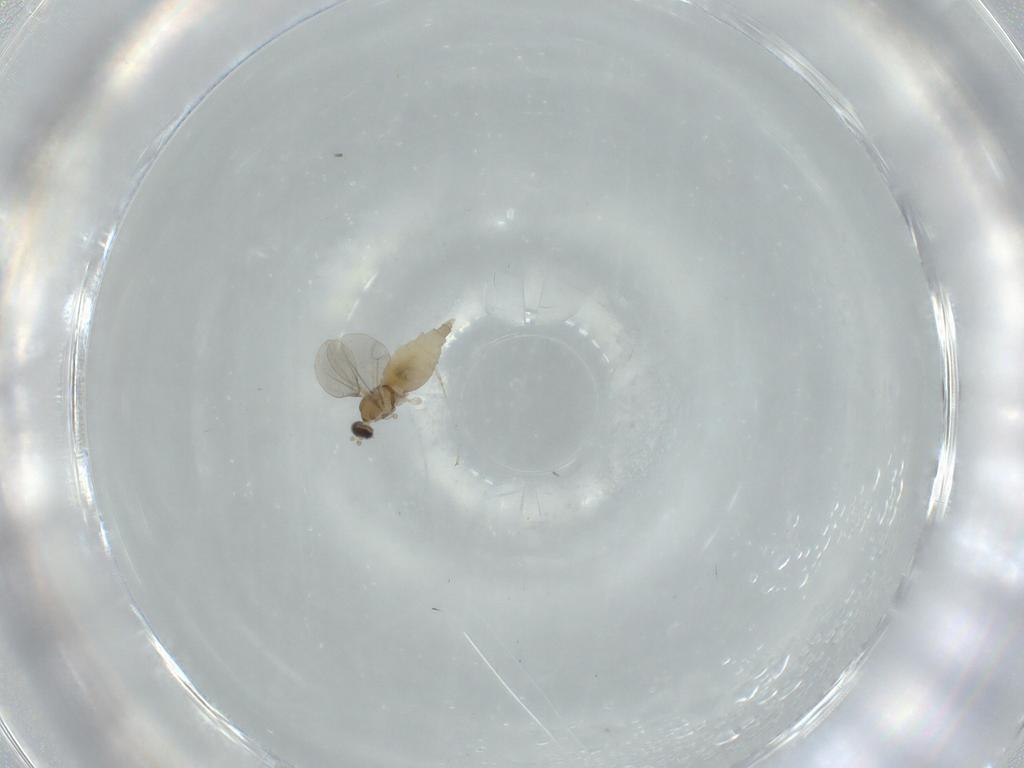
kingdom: Animalia
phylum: Arthropoda
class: Insecta
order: Diptera
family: Cecidomyiidae
